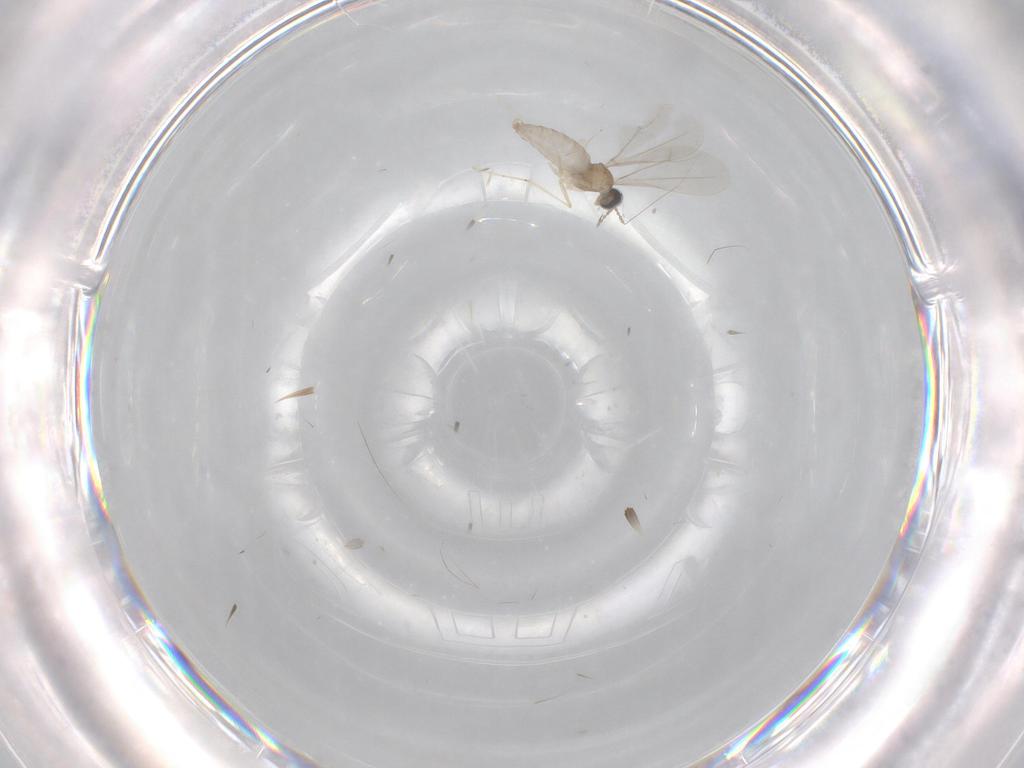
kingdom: Animalia
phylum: Arthropoda
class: Insecta
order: Diptera
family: Cecidomyiidae
